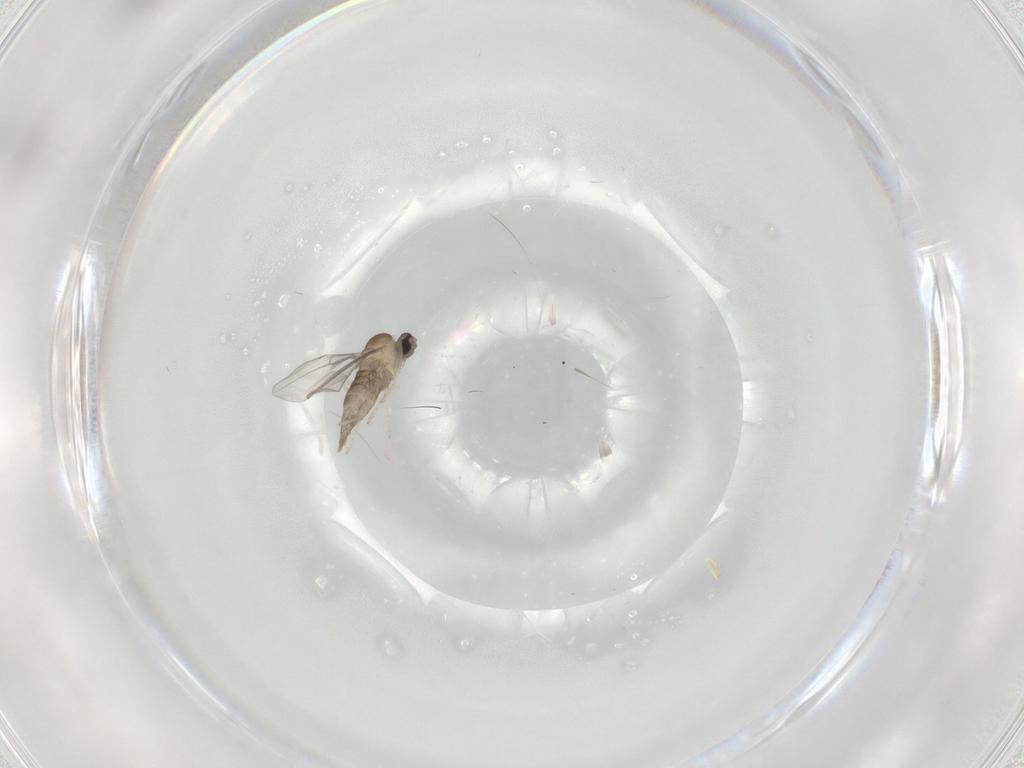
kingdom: Animalia
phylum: Arthropoda
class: Insecta
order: Diptera
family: Cecidomyiidae
